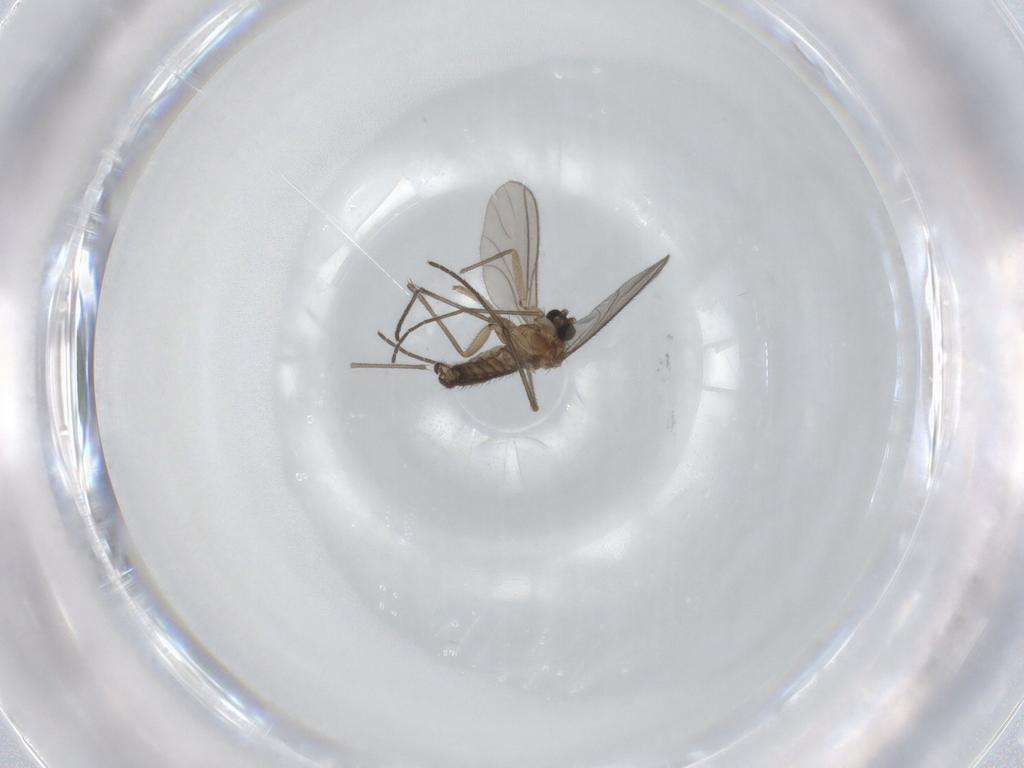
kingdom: Animalia
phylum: Arthropoda
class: Insecta
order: Diptera
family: Sciaridae
